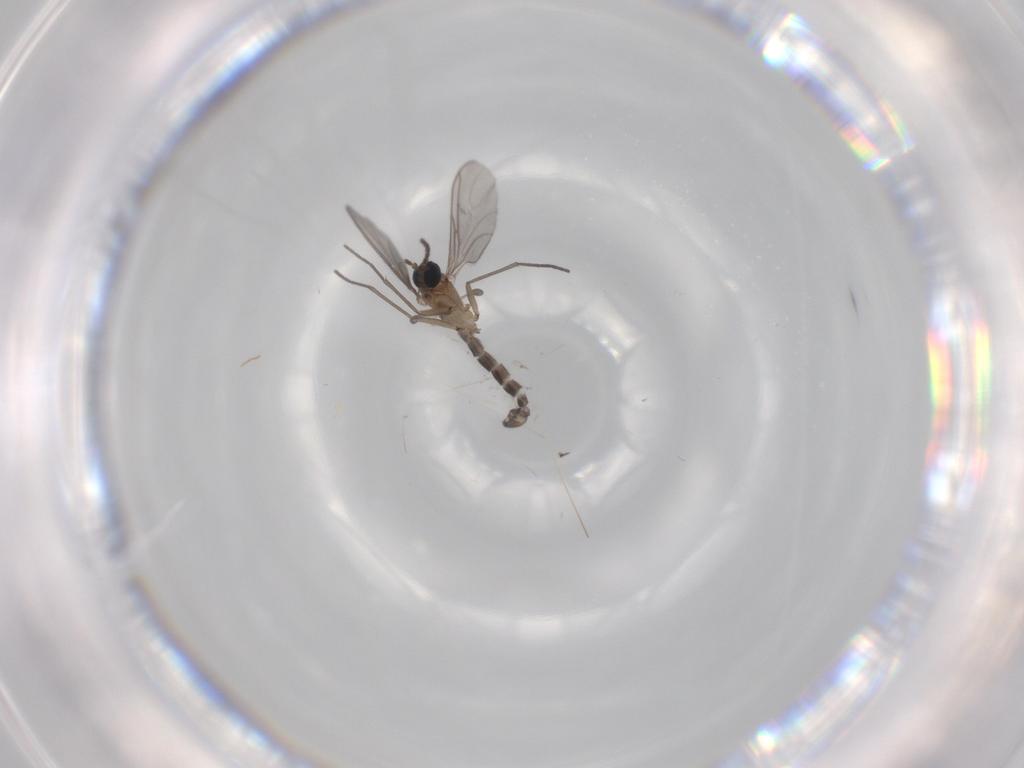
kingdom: Animalia
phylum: Arthropoda
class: Insecta
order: Diptera
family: Sciaridae
